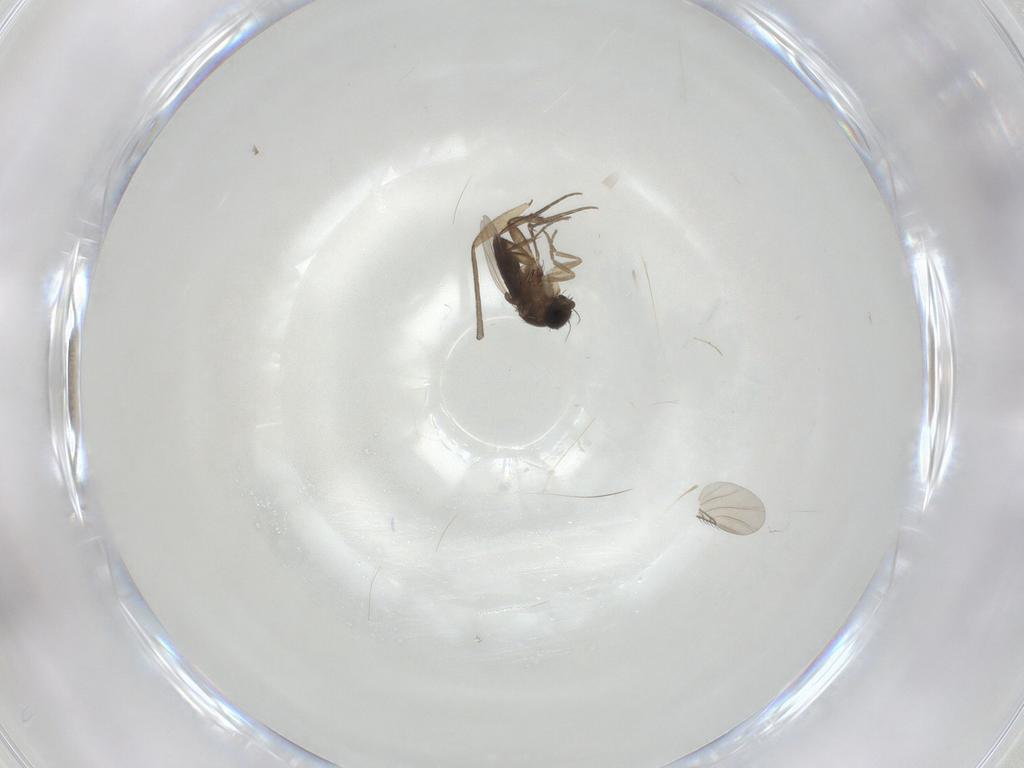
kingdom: Animalia
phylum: Arthropoda
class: Insecta
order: Diptera
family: Phoridae
